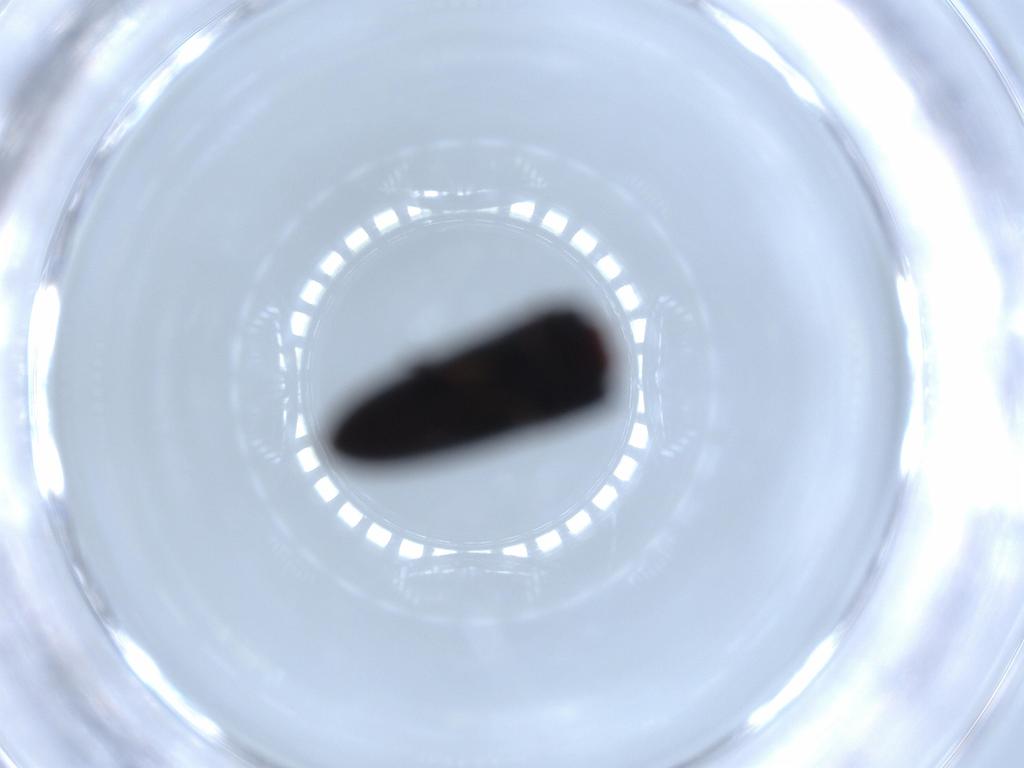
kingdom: Animalia
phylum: Arthropoda
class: Insecta
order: Coleoptera
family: Eucnemidae
